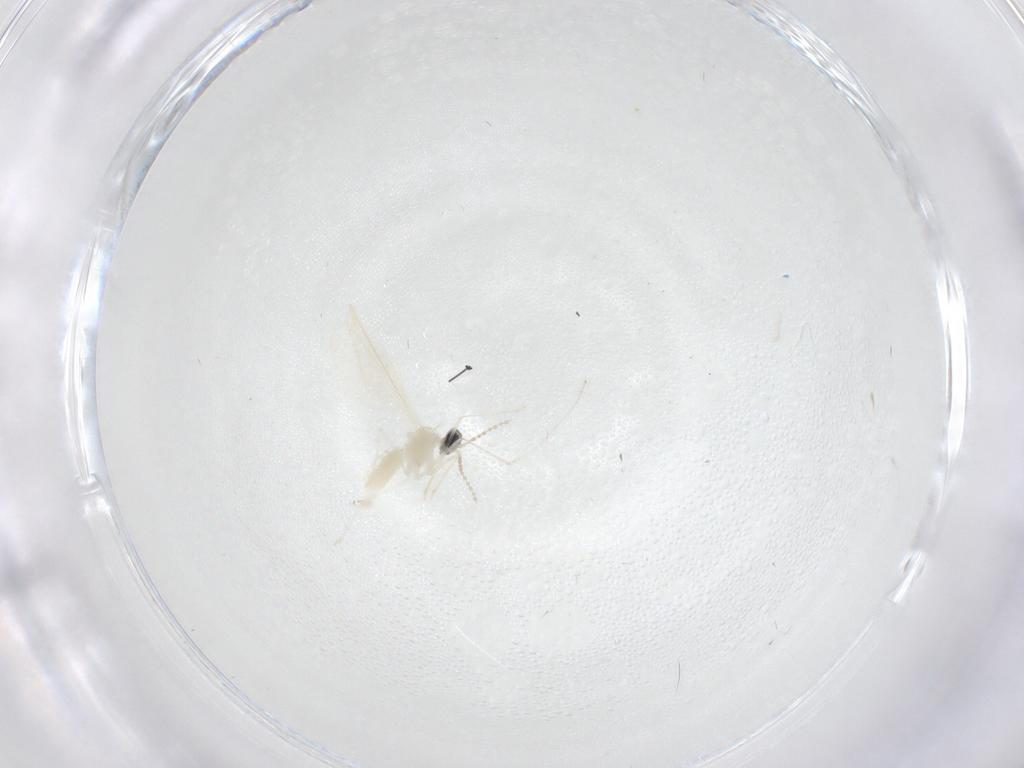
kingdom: Animalia
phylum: Arthropoda
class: Insecta
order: Diptera
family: Cecidomyiidae
